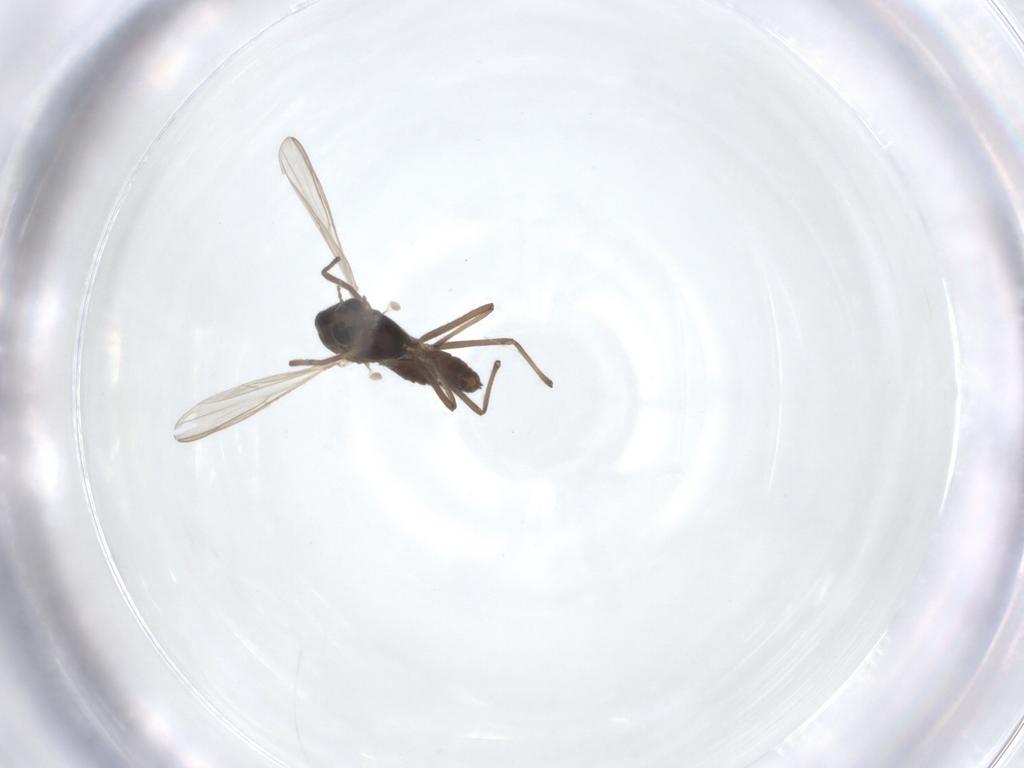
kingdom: Animalia
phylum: Arthropoda
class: Insecta
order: Diptera
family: Chironomidae
